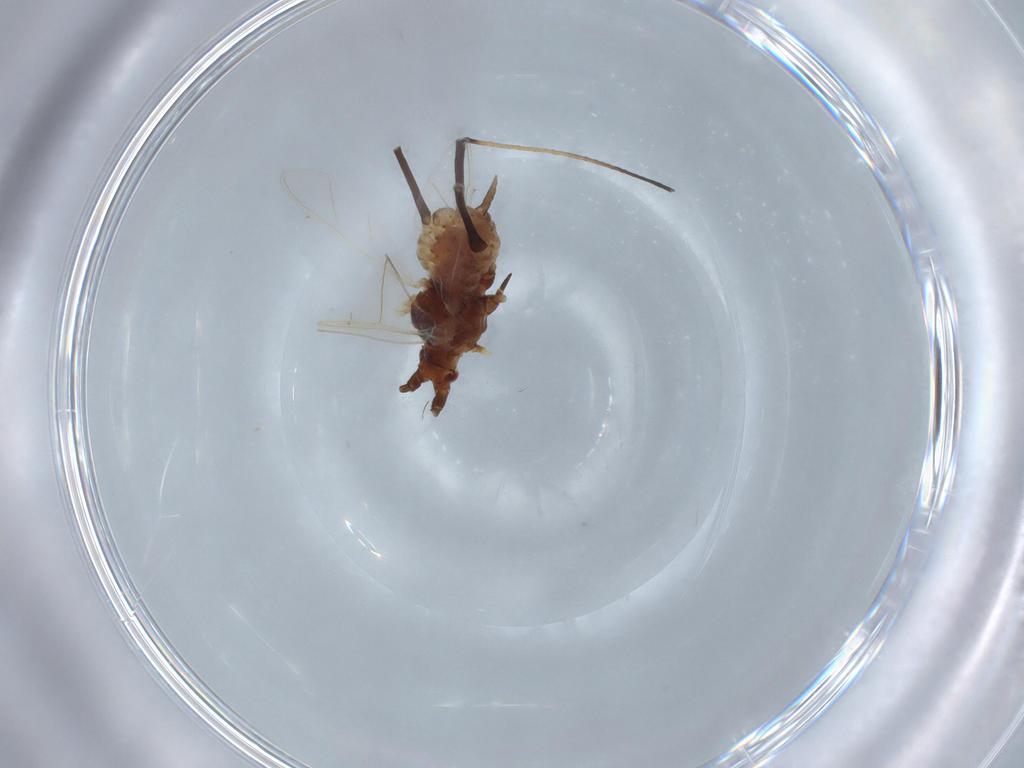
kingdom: Animalia
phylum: Arthropoda
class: Insecta
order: Hemiptera
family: Aphididae
